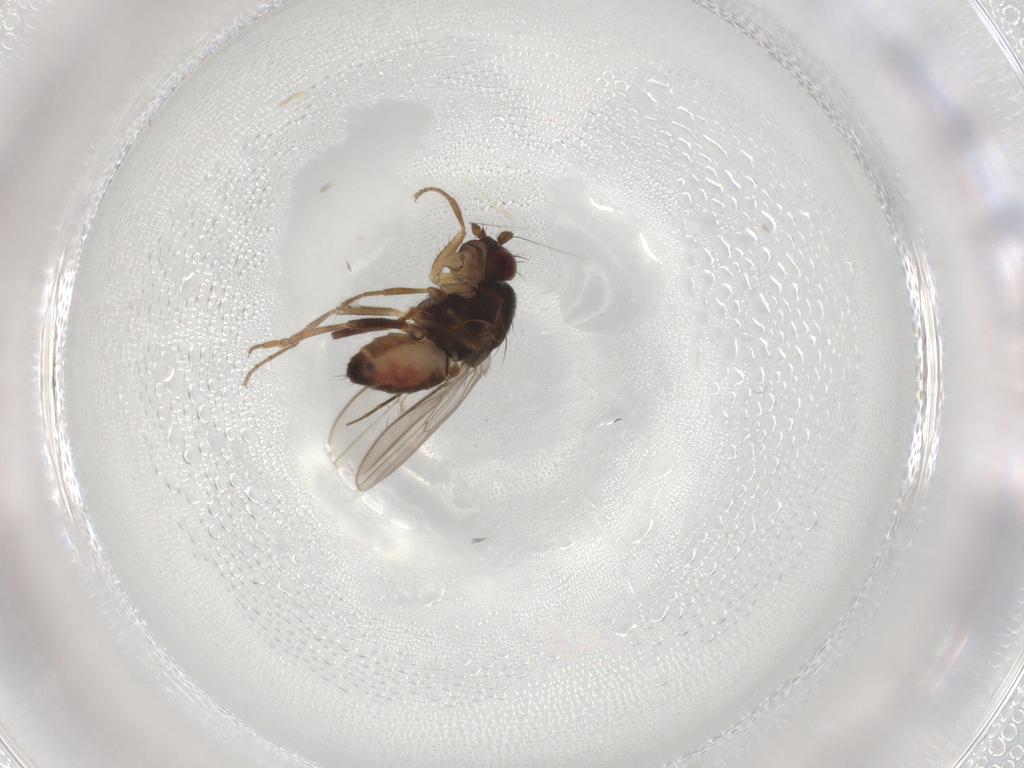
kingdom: Animalia
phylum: Arthropoda
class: Insecta
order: Diptera
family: Sphaeroceridae
